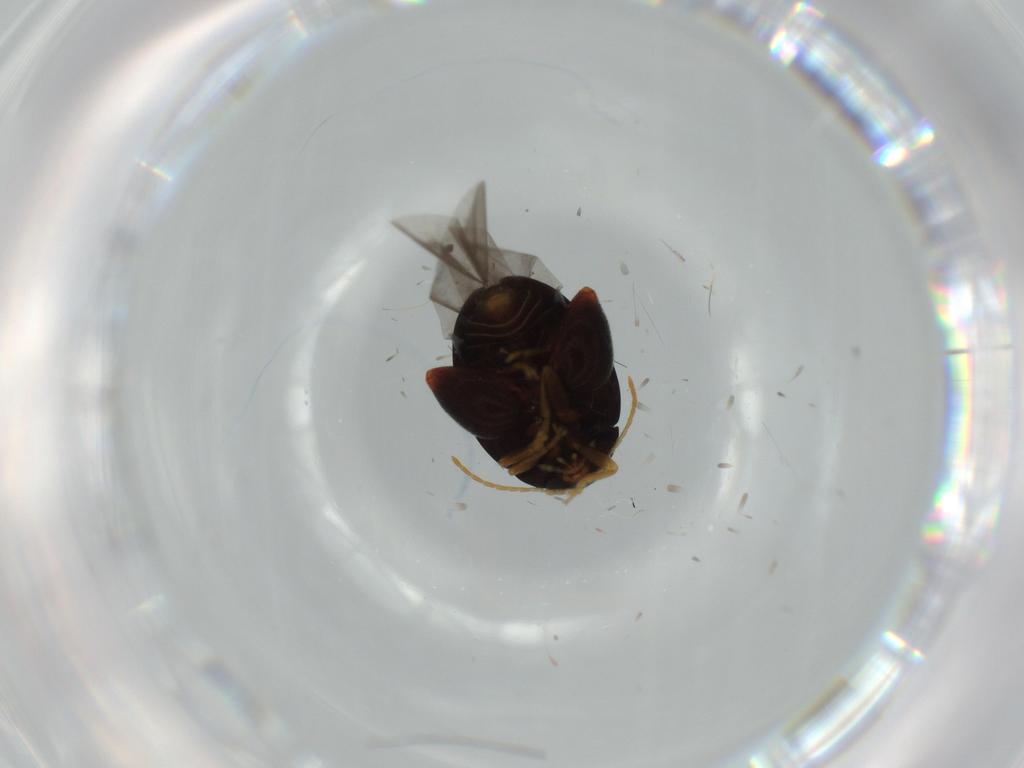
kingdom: Animalia
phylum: Arthropoda
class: Insecta
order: Coleoptera
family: Chrysomelidae
